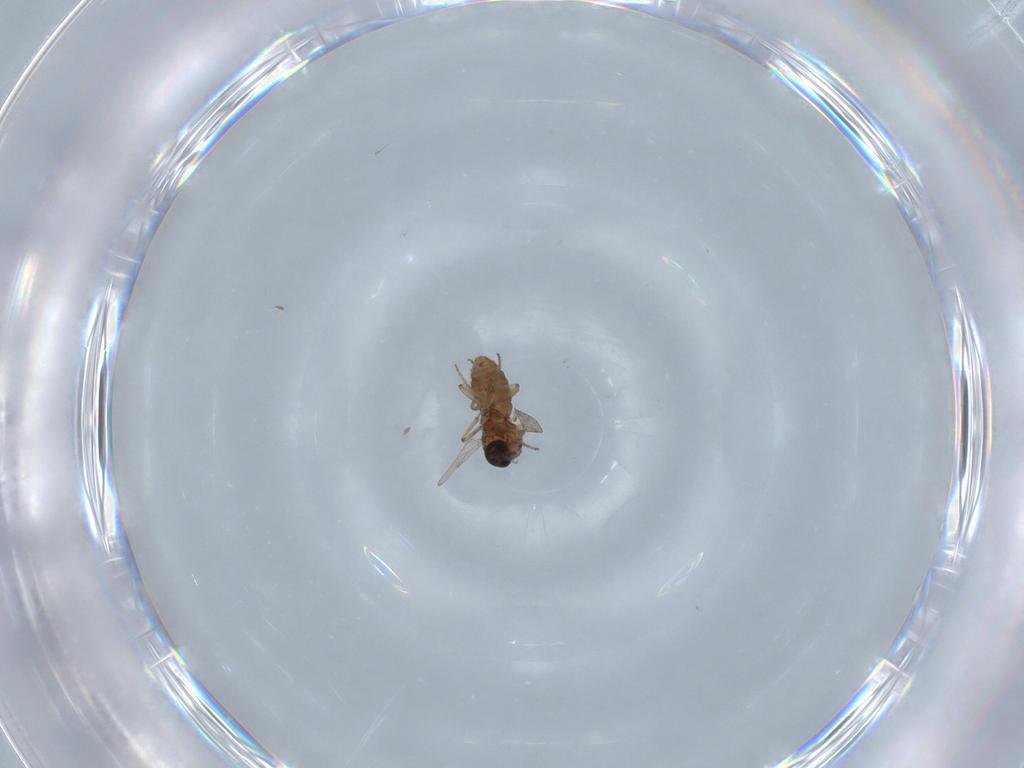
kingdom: Animalia
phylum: Arthropoda
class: Insecta
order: Diptera
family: Ceratopogonidae
